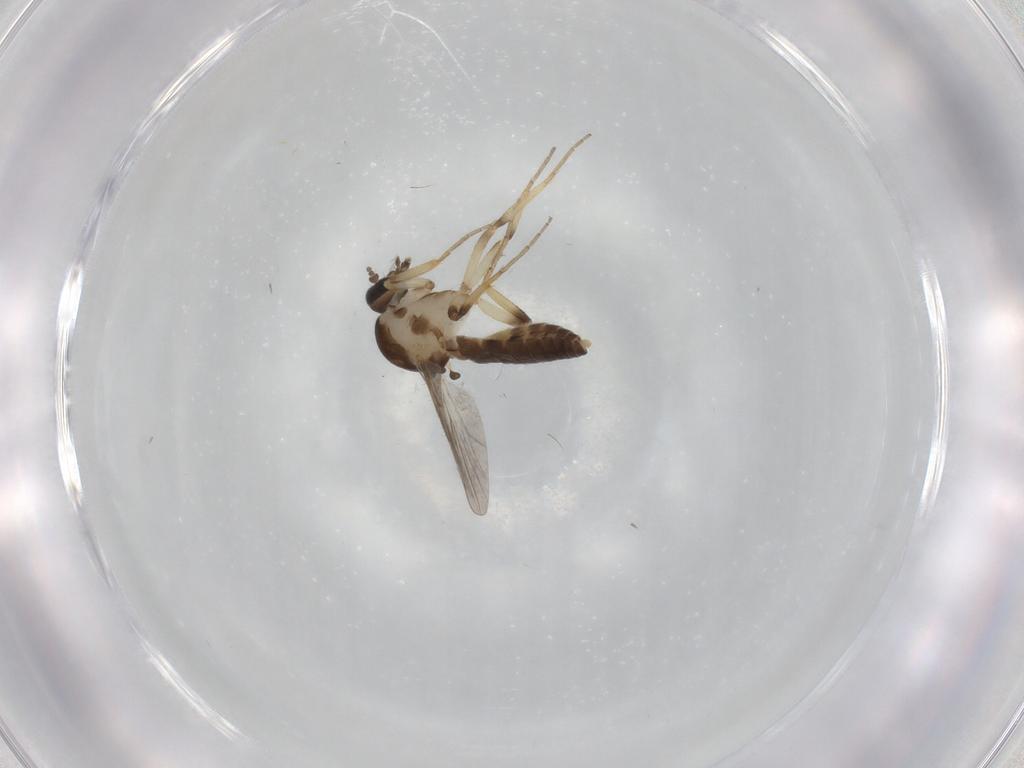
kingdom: Animalia
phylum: Arthropoda
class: Insecta
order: Diptera
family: Ceratopogonidae
